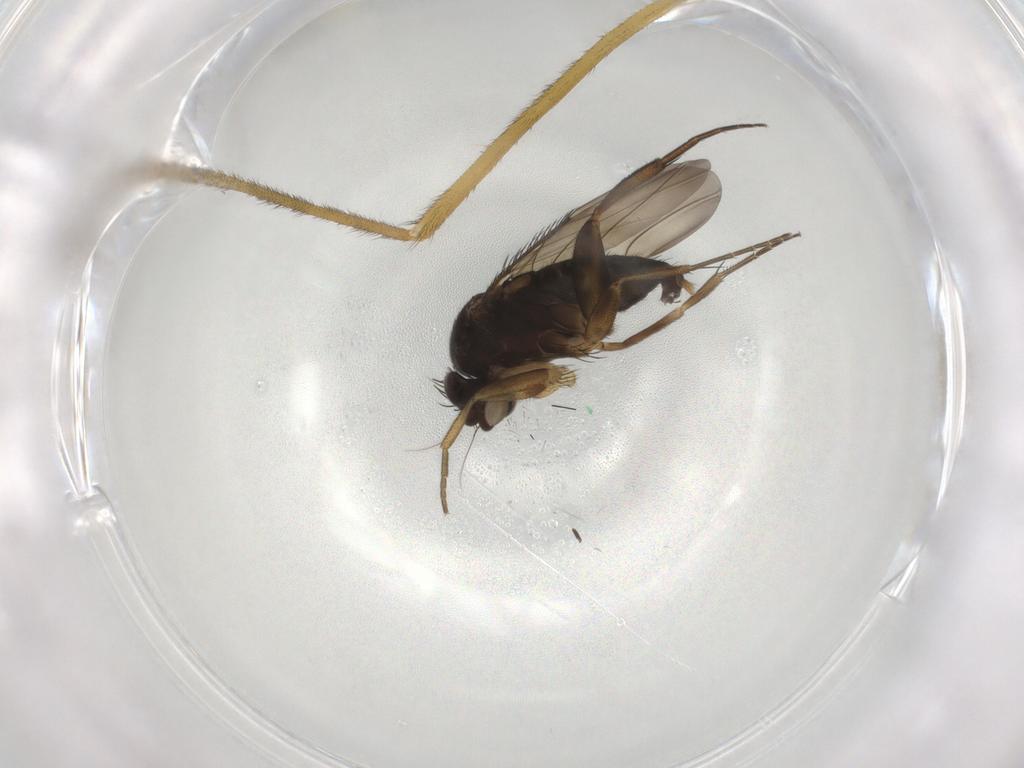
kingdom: Animalia
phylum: Arthropoda
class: Insecta
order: Diptera
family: Phoridae
